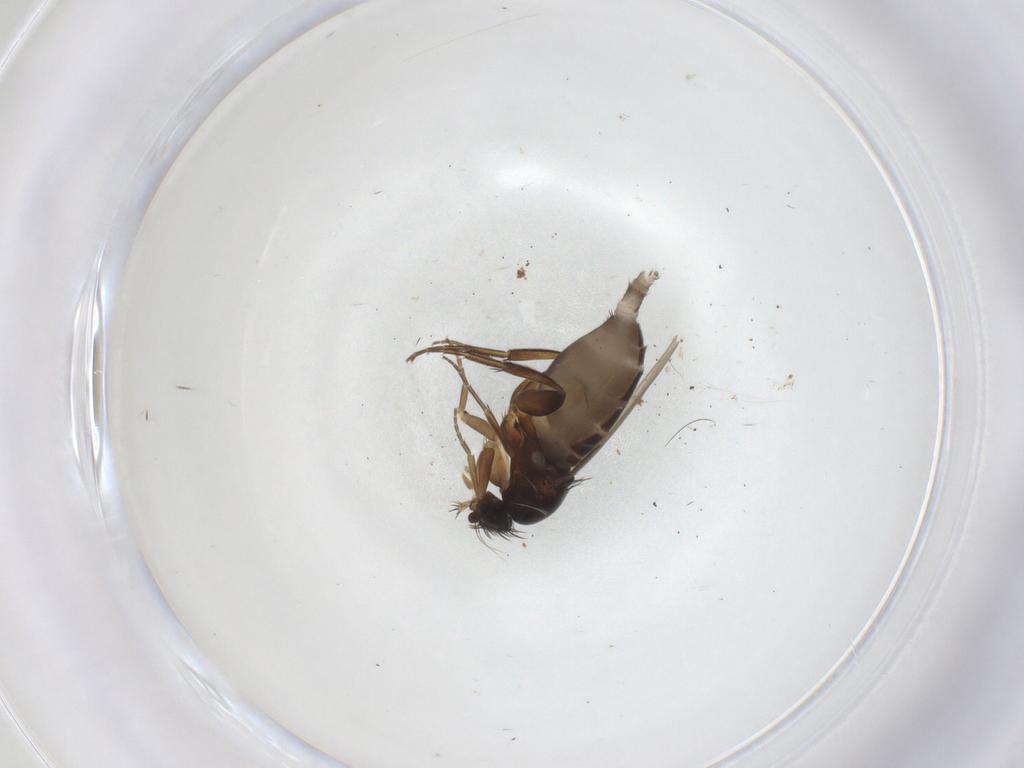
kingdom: Animalia
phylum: Arthropoda
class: Insecta
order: Diptera
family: Phoridae
